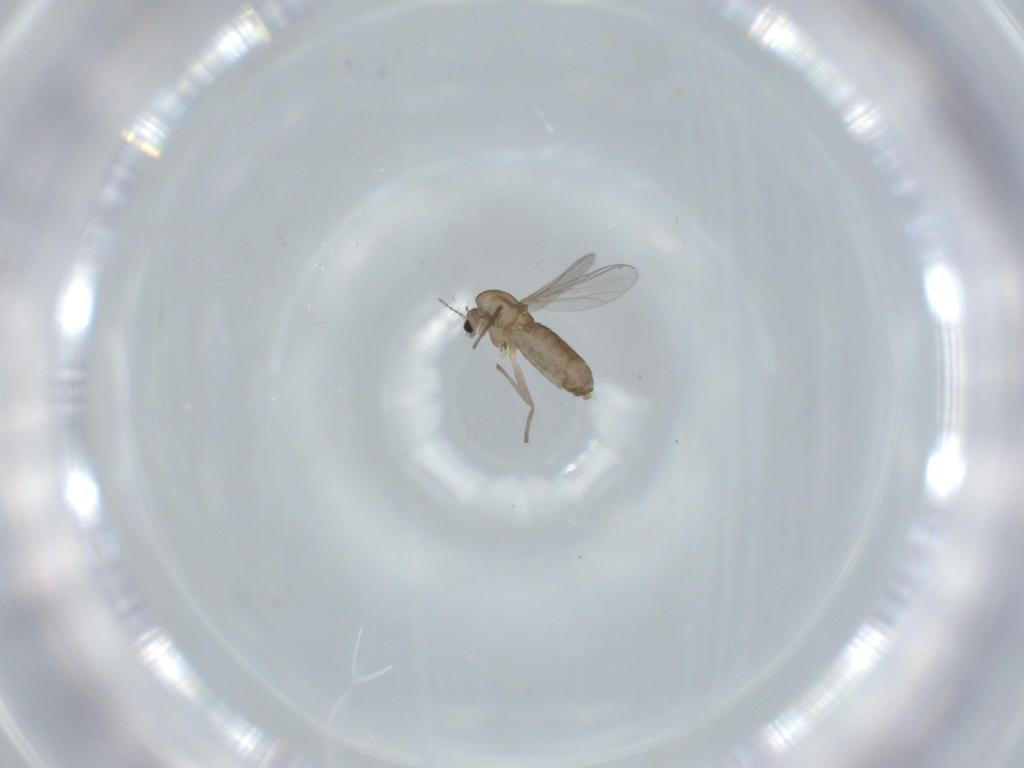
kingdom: Animalia
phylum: Arthropoda
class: Insecta
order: Diptera
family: Chironomidae
